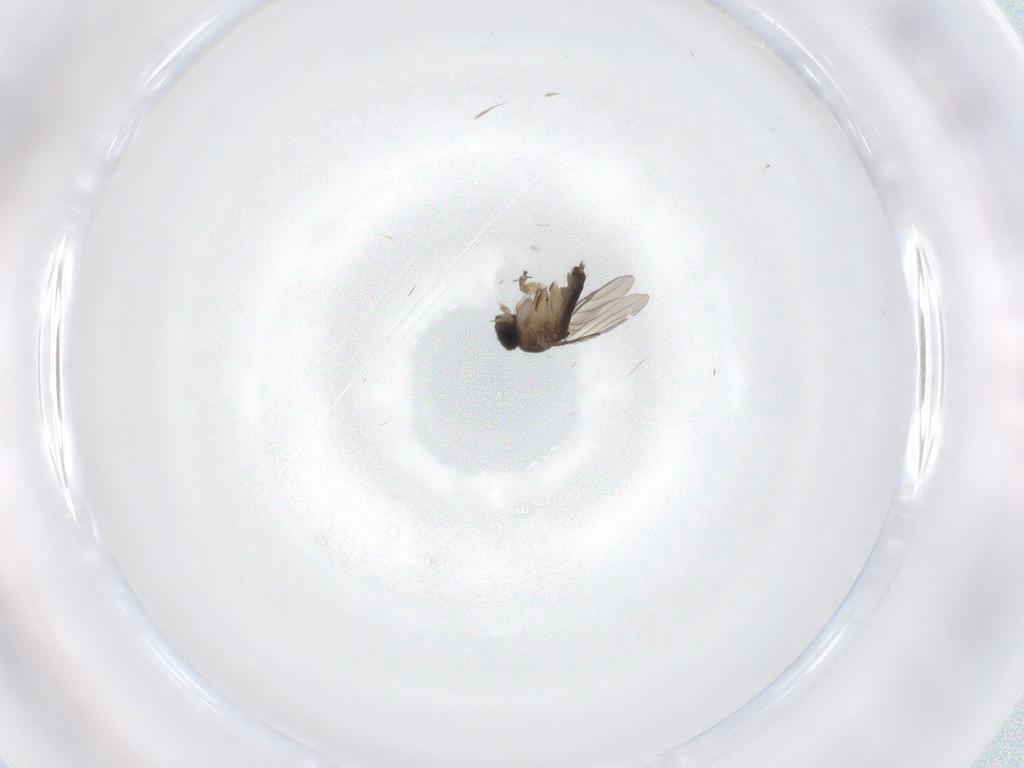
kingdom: Animalia
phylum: Arthropoda
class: Insecta
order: Diptera
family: Phoridae
